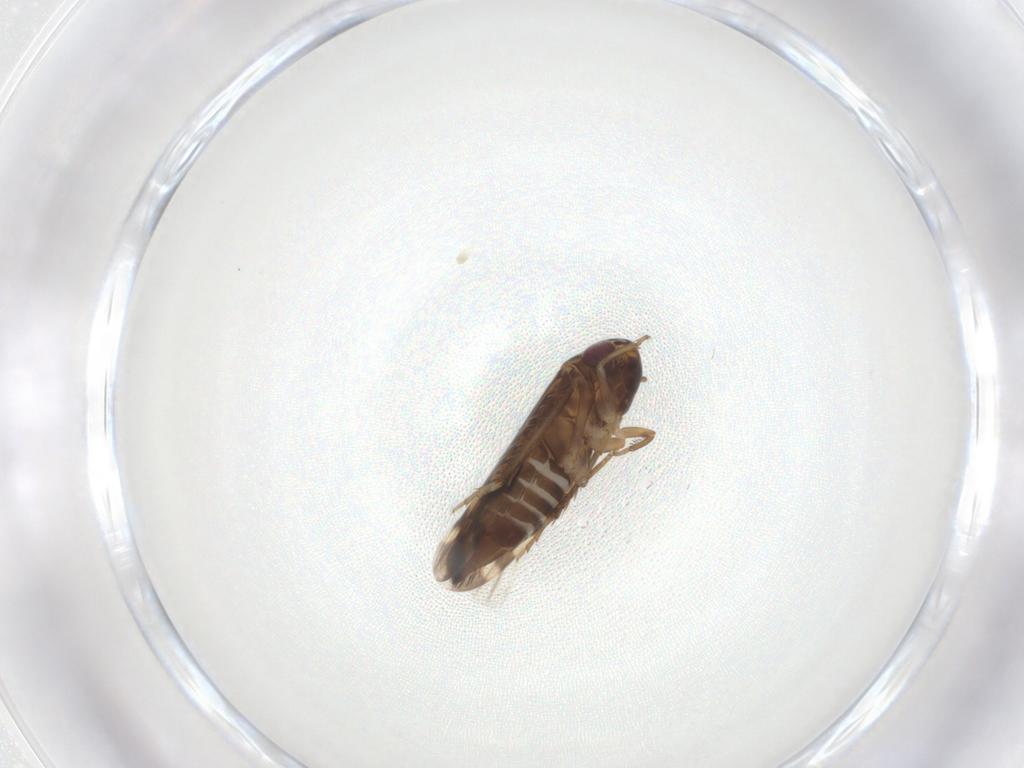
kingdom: Animalia
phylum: Arthropoda
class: Insecta
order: Hemiptera
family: Cicadellidae
